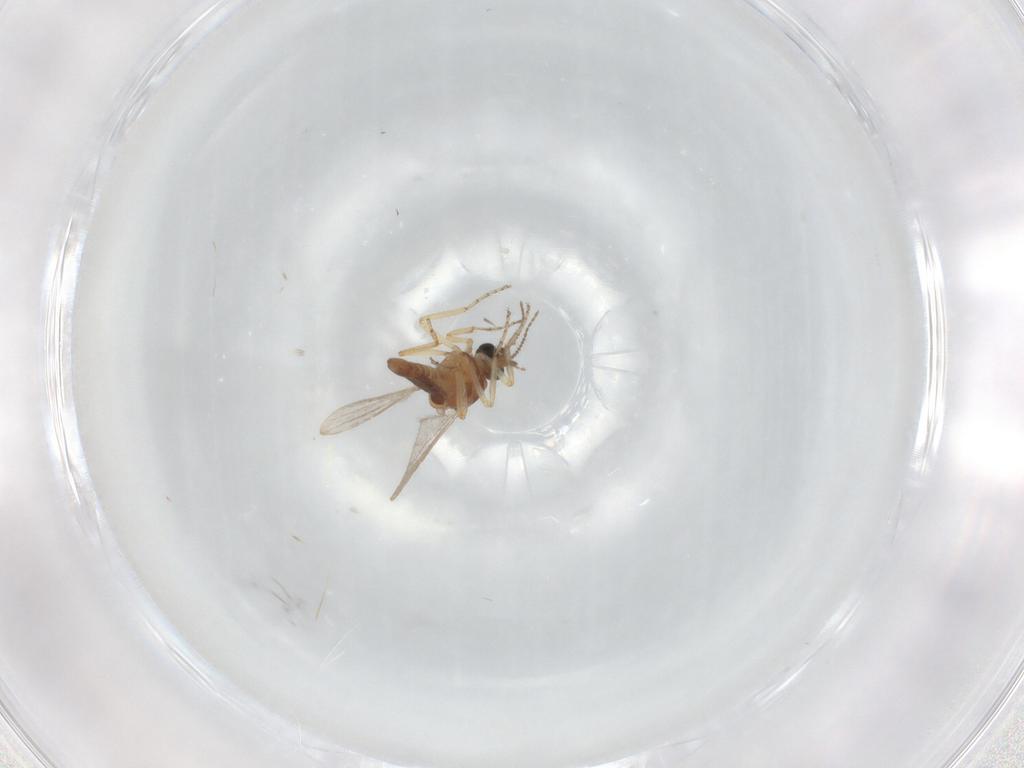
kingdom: Animalia
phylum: Arthropoda
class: Insecta
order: Diptera
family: Ceratopogonidae
